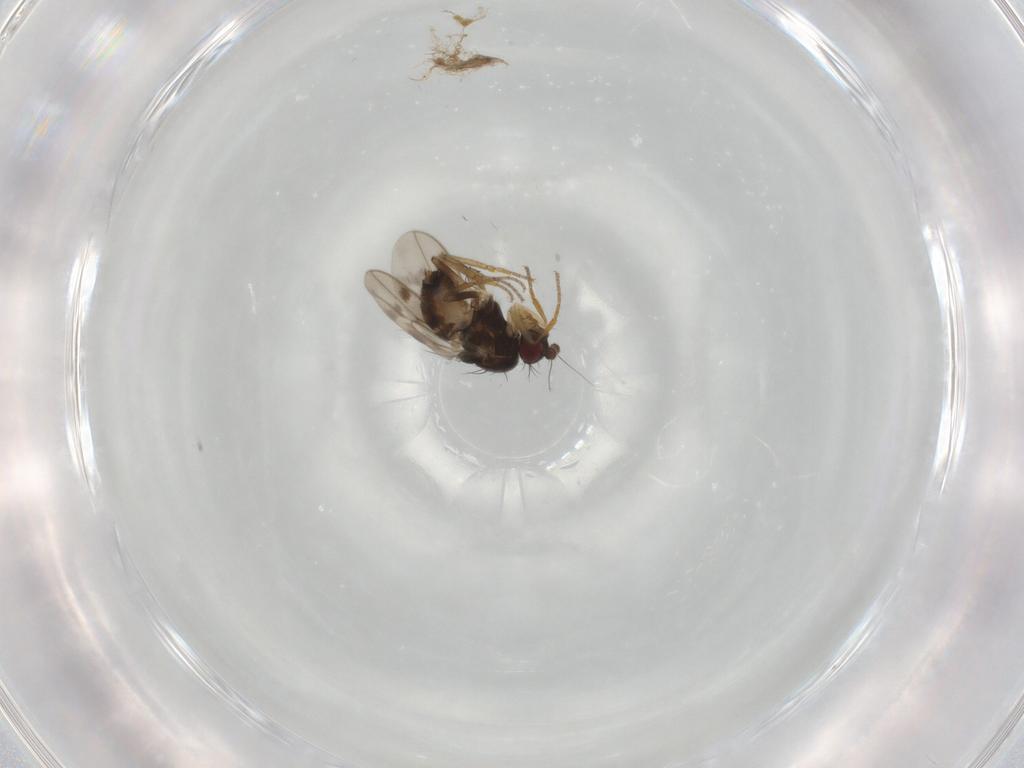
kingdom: Animalia
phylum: Arthropoda
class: Insecta
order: Diptera
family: Sphaeroceridae
